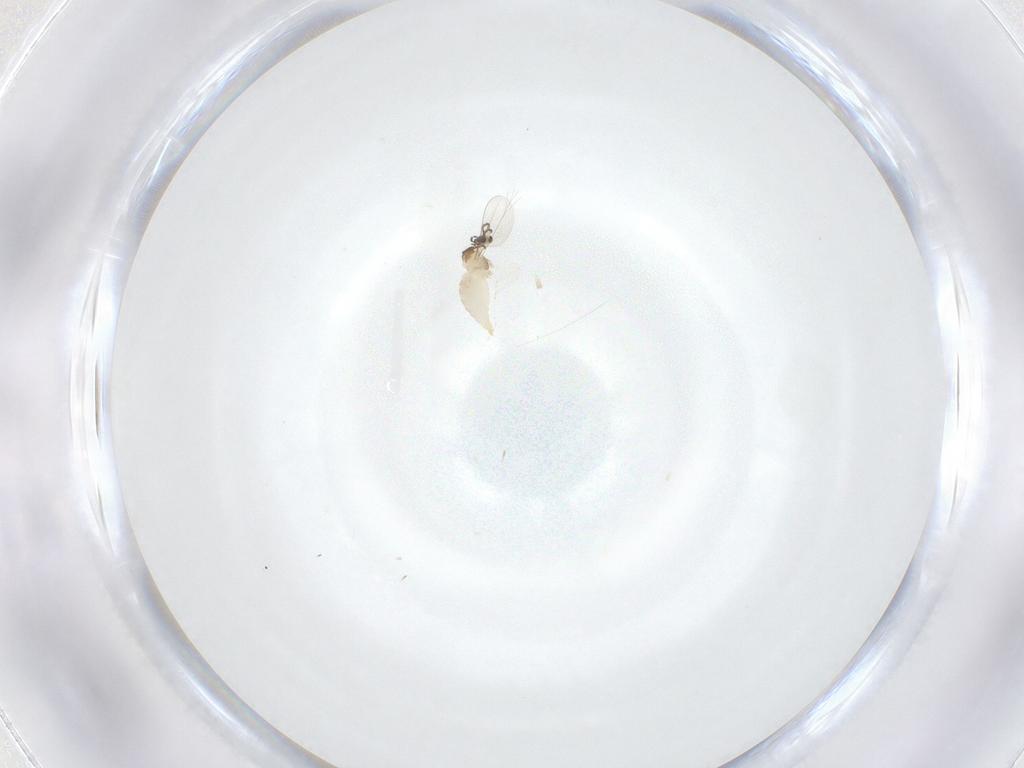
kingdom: Animalia
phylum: Arthropoda
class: Insecta
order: Diptera
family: Cecidomyiidae
